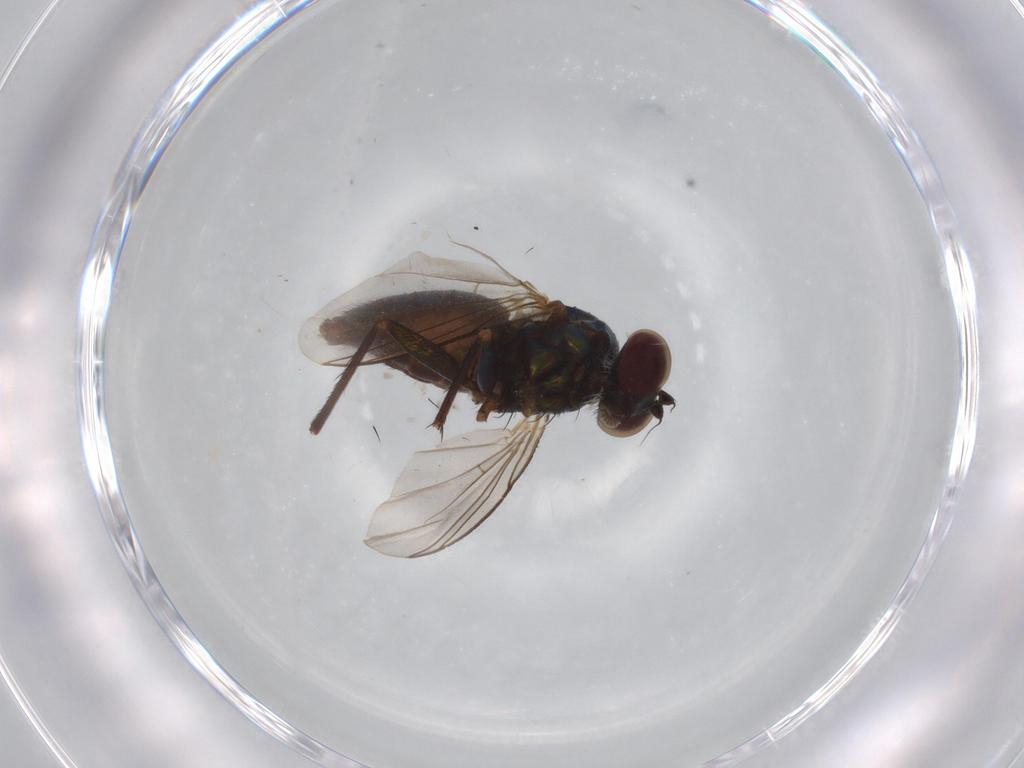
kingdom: Animalia
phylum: Arthropoda
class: Insecta
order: Diptera
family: Dolichopodidae
